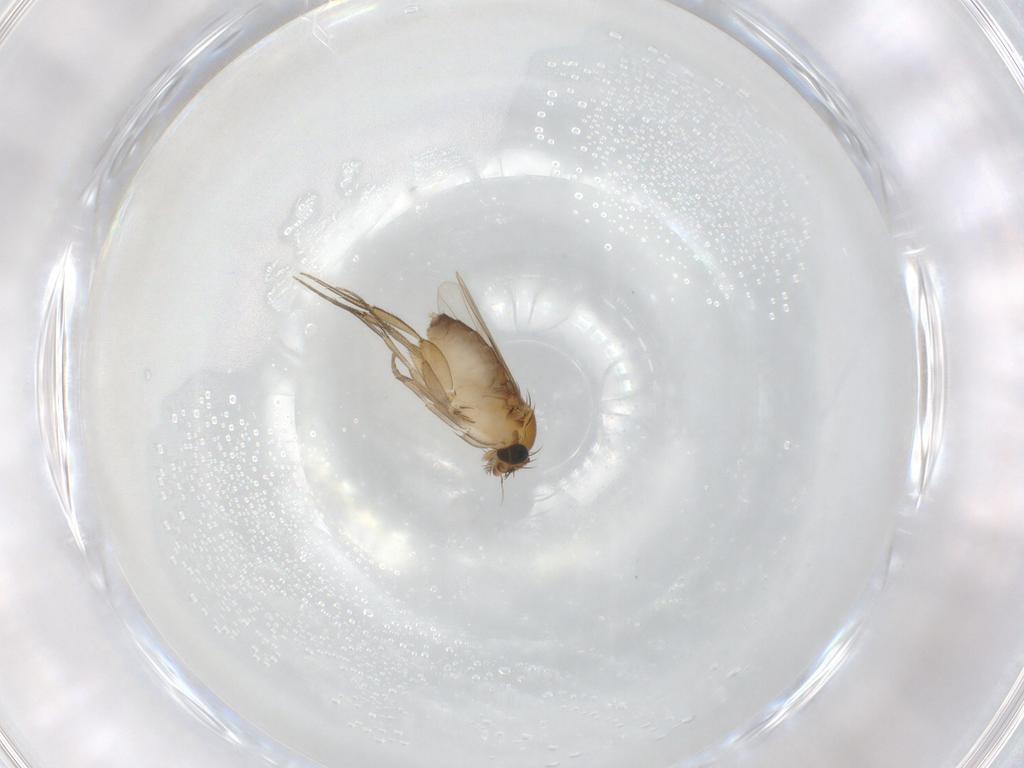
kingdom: Animalia
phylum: Arthropoda
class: Insecta
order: Diptera
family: Phoridae
